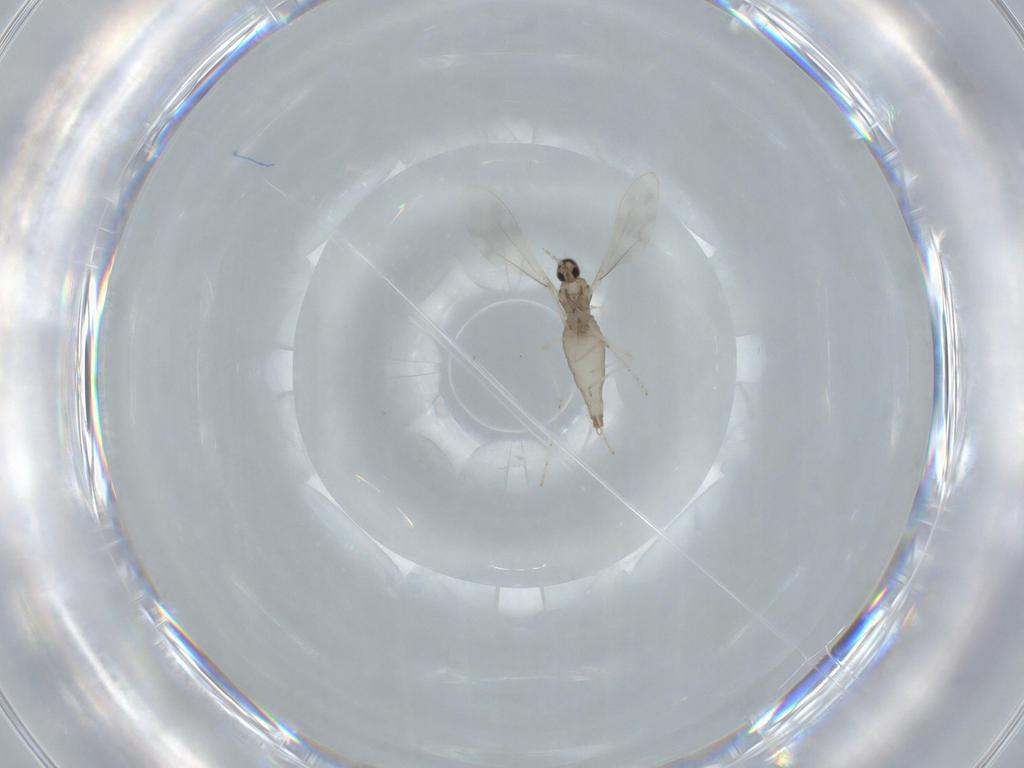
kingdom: Animalia
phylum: Arthropoda
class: Insecta
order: Diptera
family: Cecidomyiidae
